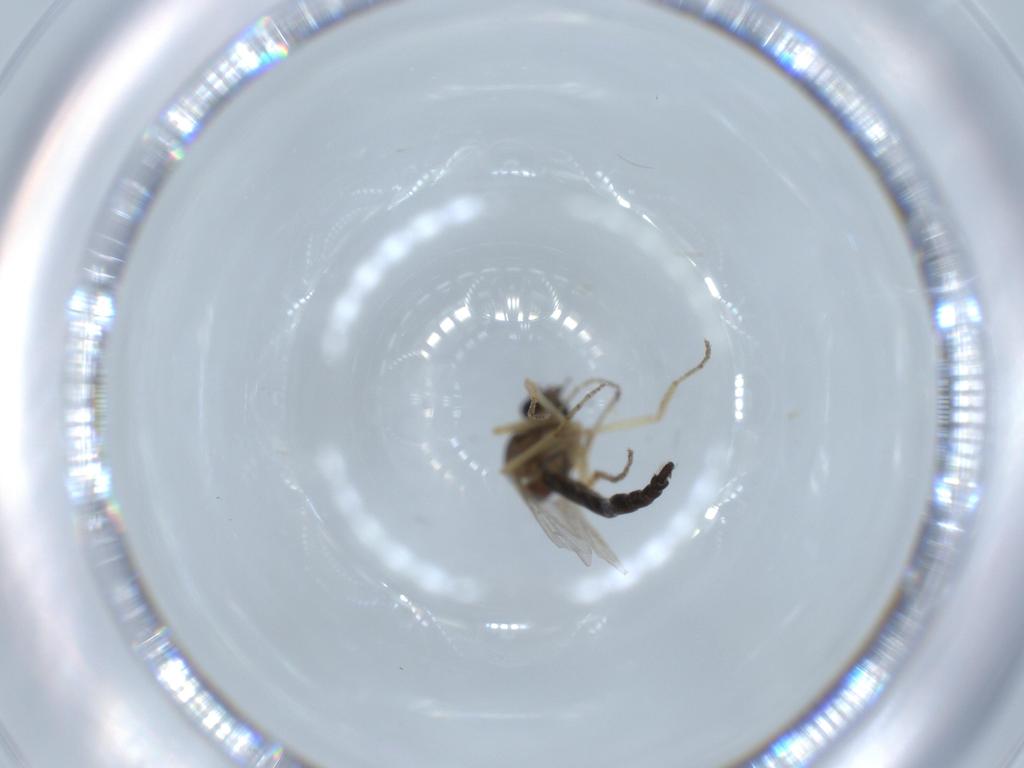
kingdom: Animalia
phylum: Arthropoda
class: Insecta
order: Diptera
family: Ceratopogonidae
